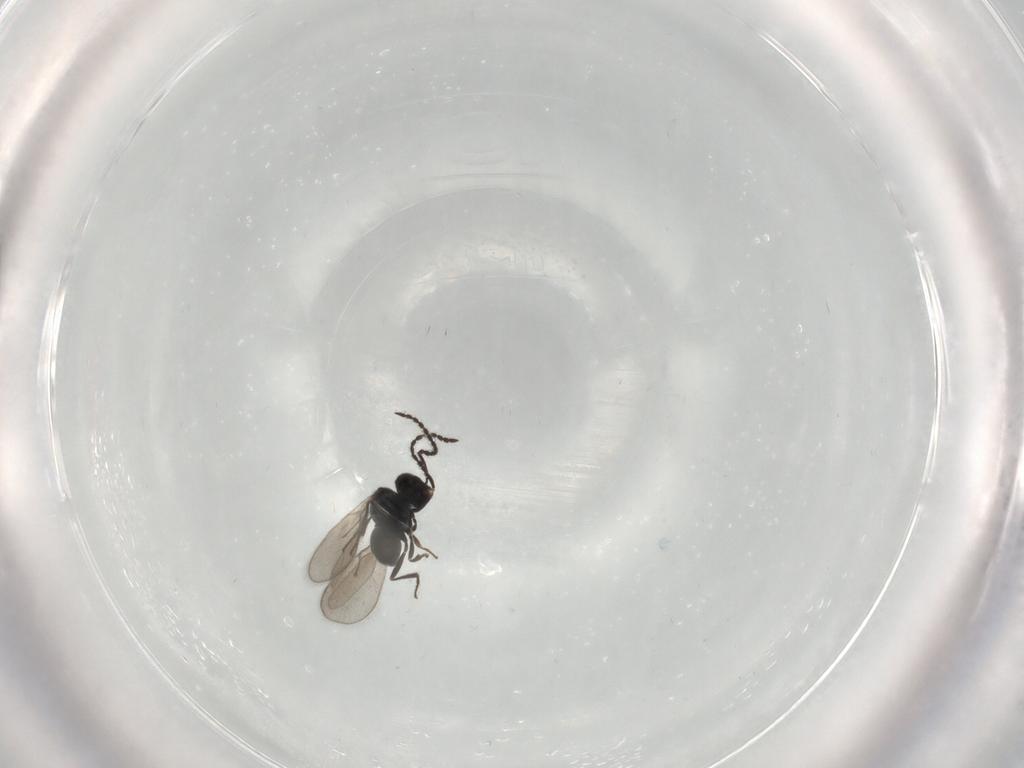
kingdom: Animalia
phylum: Arthropoda
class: Insecta
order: Hymenoptera
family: Scelionidae
